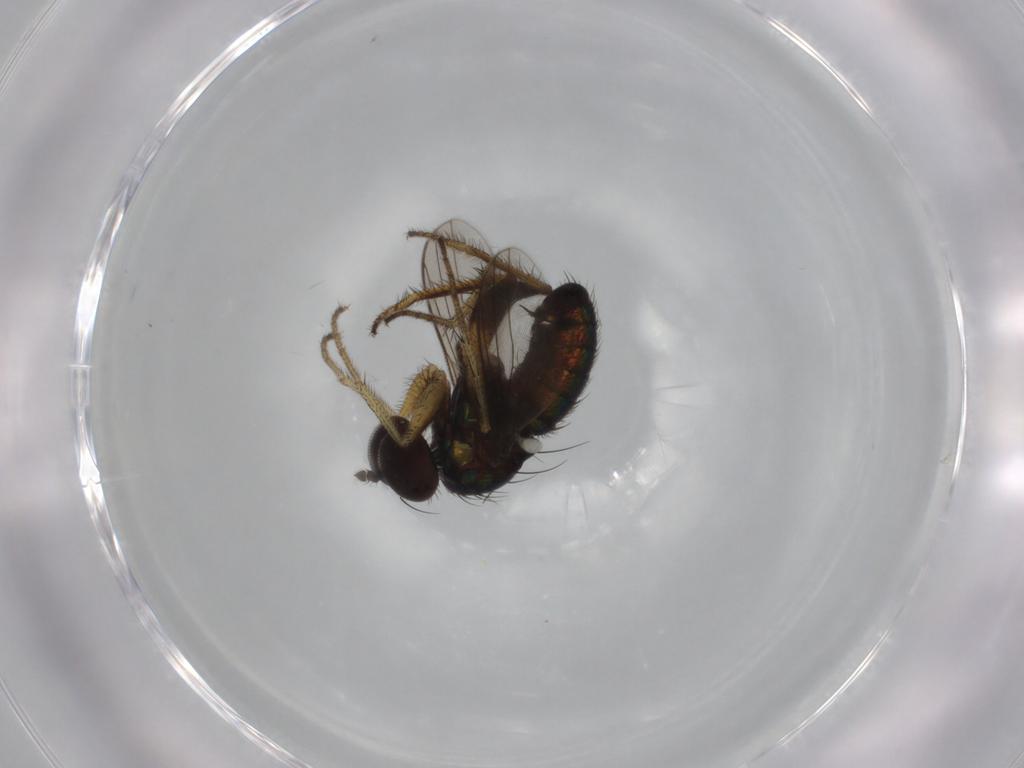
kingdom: Animalia
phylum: Arthropoda
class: Insecta
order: Diptera
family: Dolichopodidae
